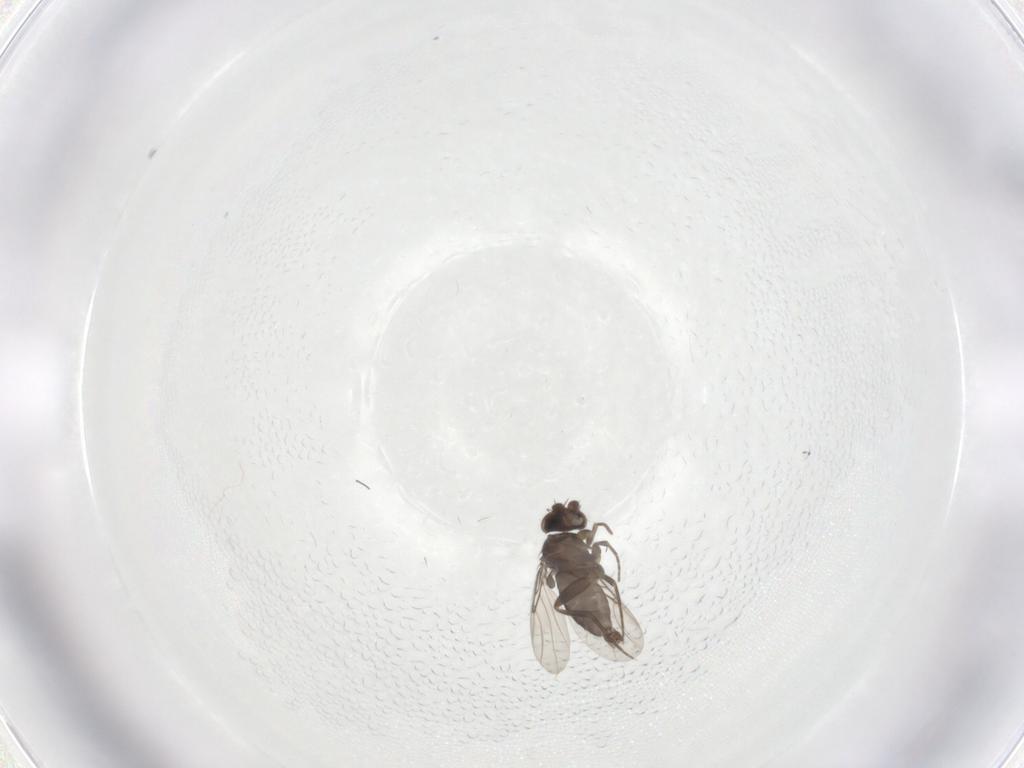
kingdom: Animalia
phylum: Arthropoda
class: Insecta
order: Diptera
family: Phoridae
